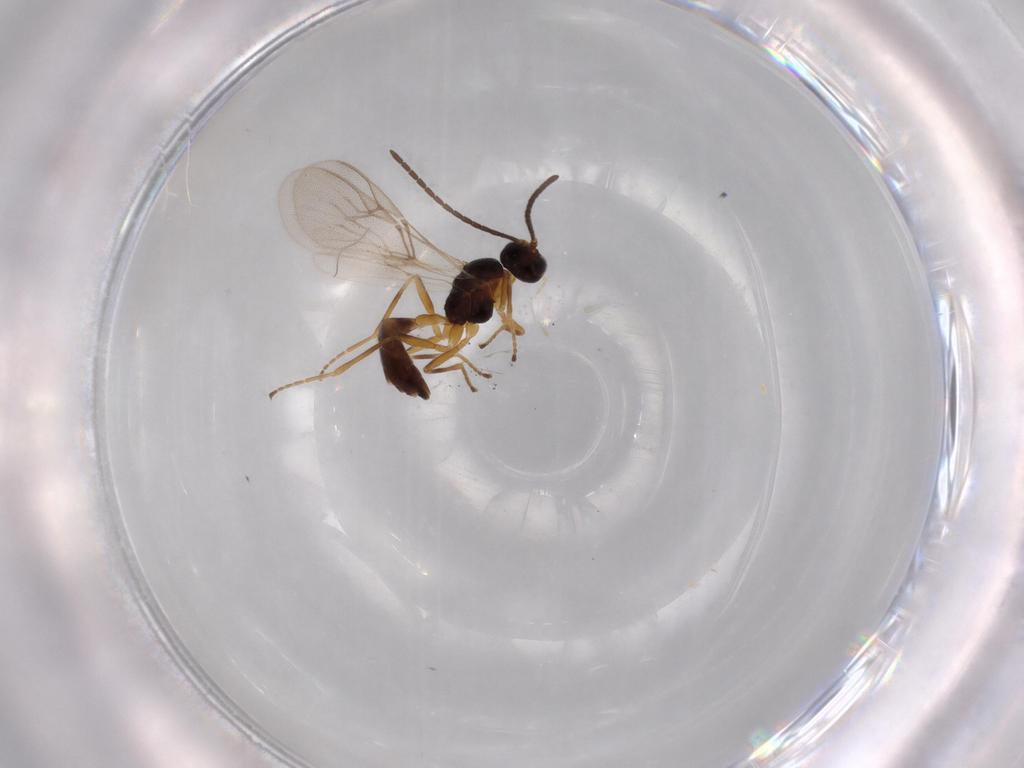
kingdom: Animalia
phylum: Arthropoda
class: Insecta
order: Hymenoptera
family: Braconidae
